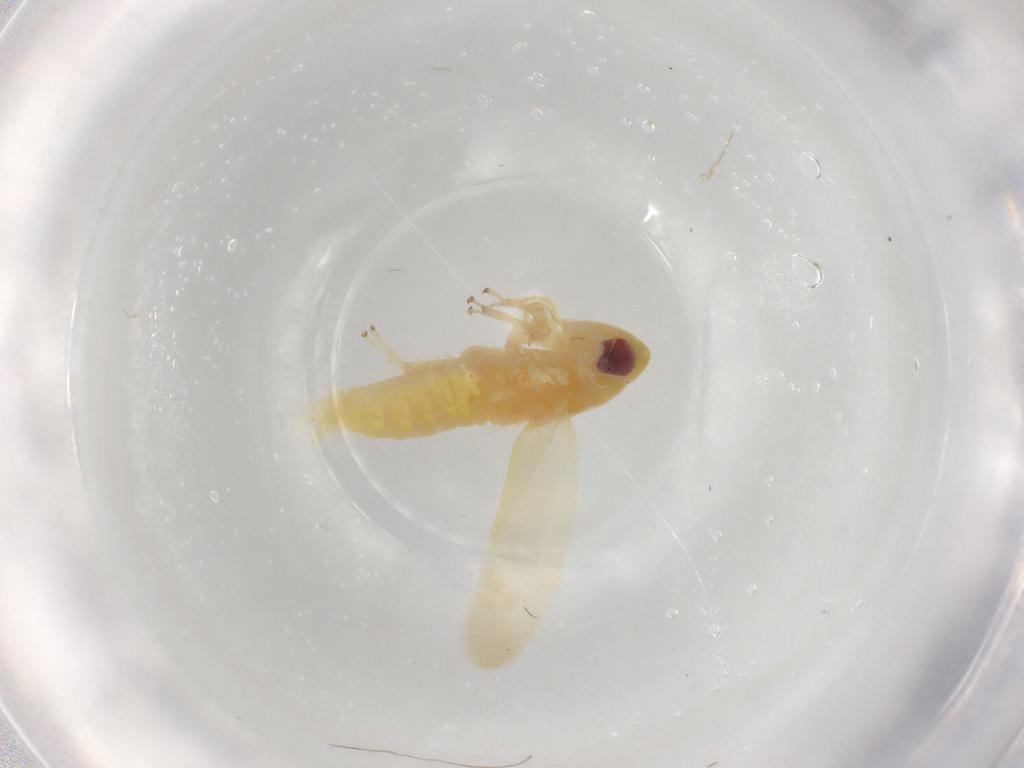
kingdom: Animalia
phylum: Arthropoda
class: Insecta
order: Hemiptera
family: Cicadellidae
